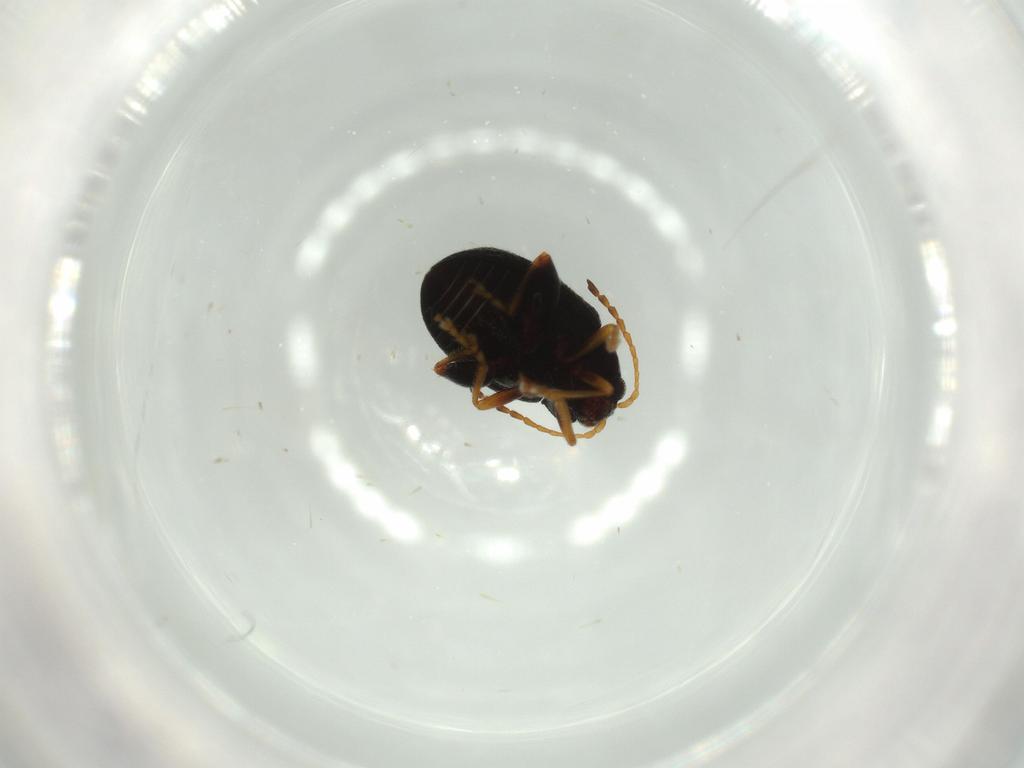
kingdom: Animalia
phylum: Arthropoda
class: Insecta
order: Coleoptera
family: Chrysomelidae
